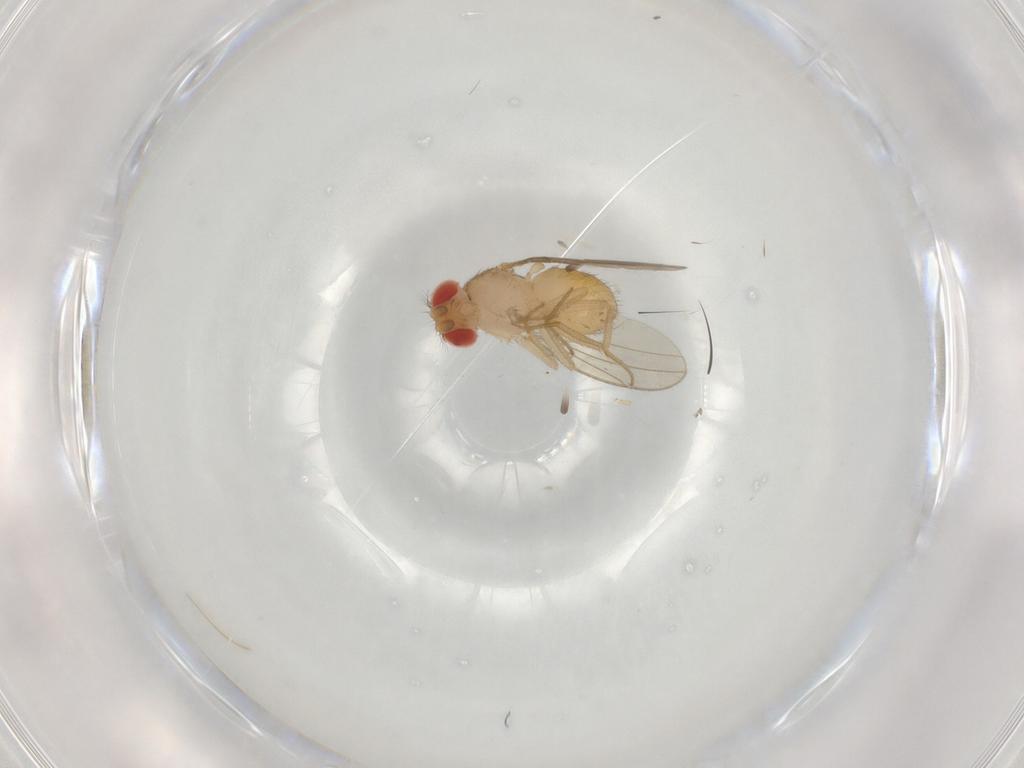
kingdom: Animalia
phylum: Arthropoda
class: Insecta
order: Diptera
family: Drosophilidae
